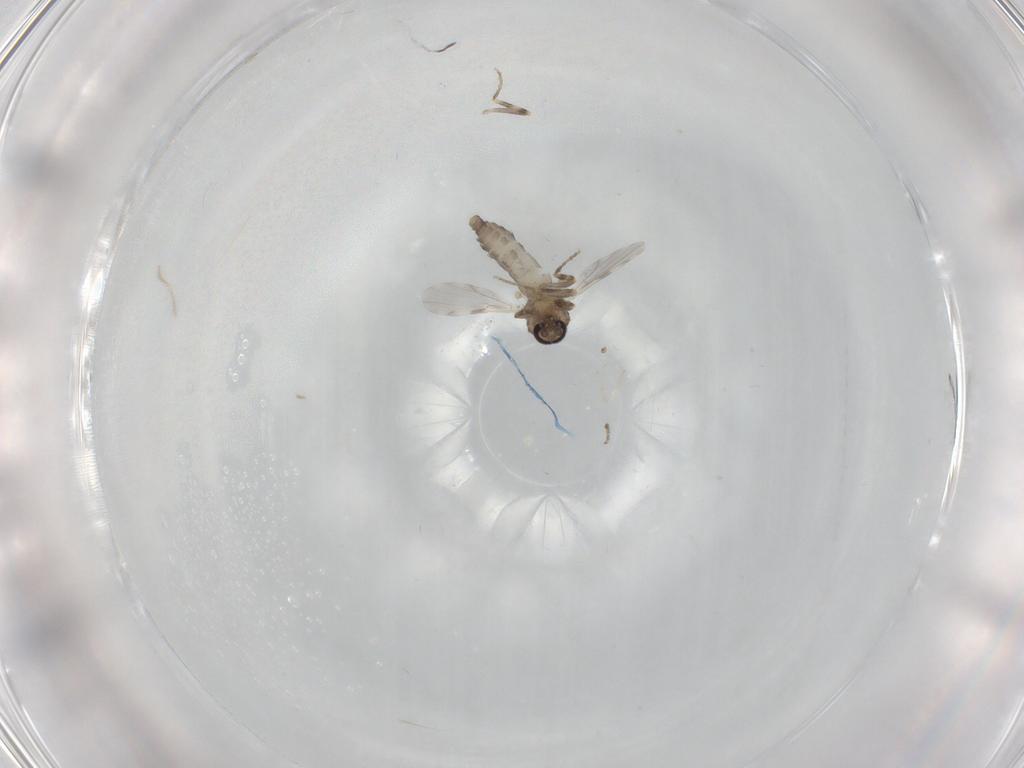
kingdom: Animalia
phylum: Arthropoda
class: Insecta
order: Diptera
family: Ceratopogonidae
